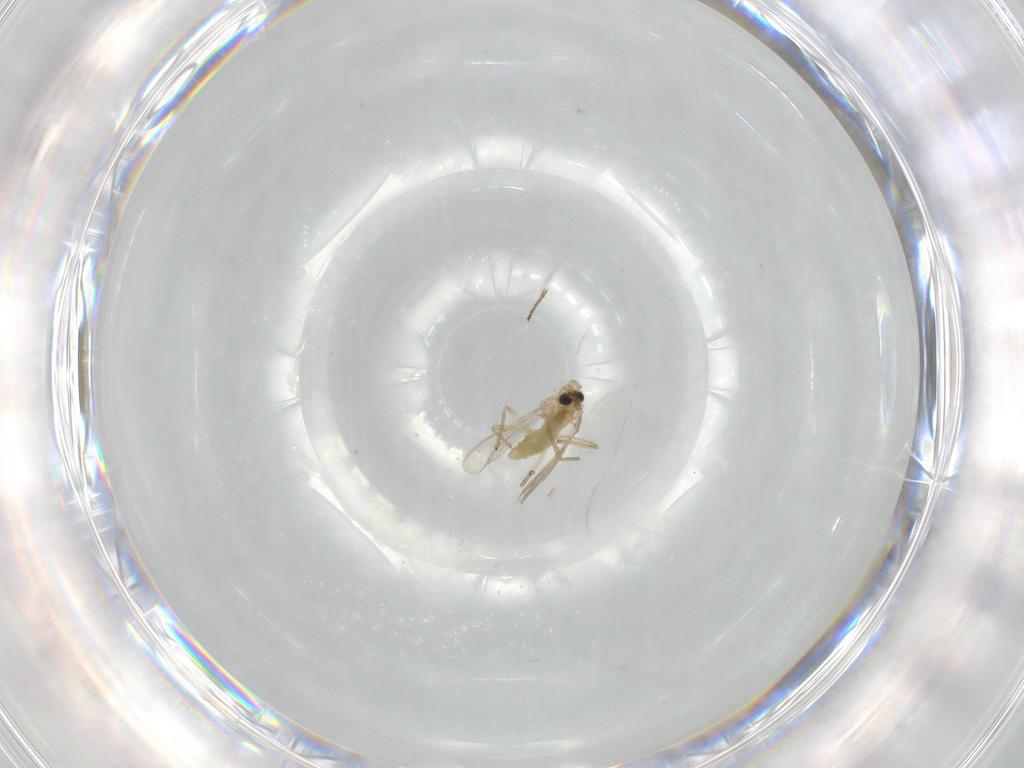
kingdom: Animalia
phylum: Arthropoda
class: Insecta
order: Diptera
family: Chironomidae
